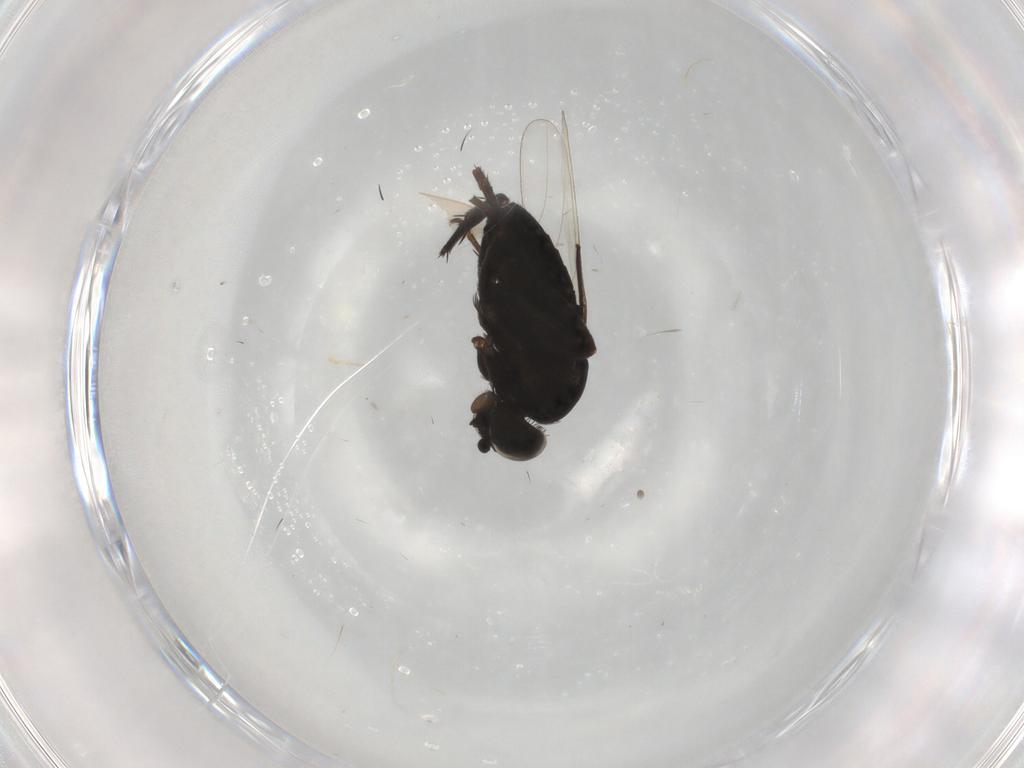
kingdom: Animalia
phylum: Arthropoda
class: Insecta
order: Diptera
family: Phoridae
